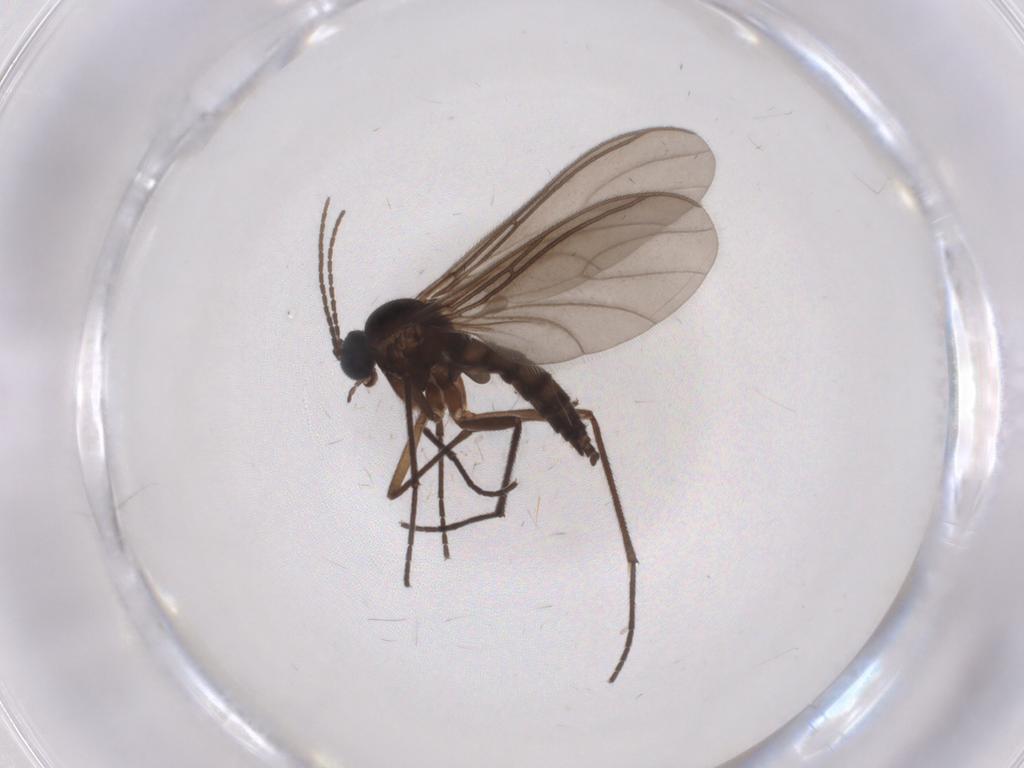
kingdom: Animalia
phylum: Arthropoda
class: Insecta
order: Diptera
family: Sciaridae
